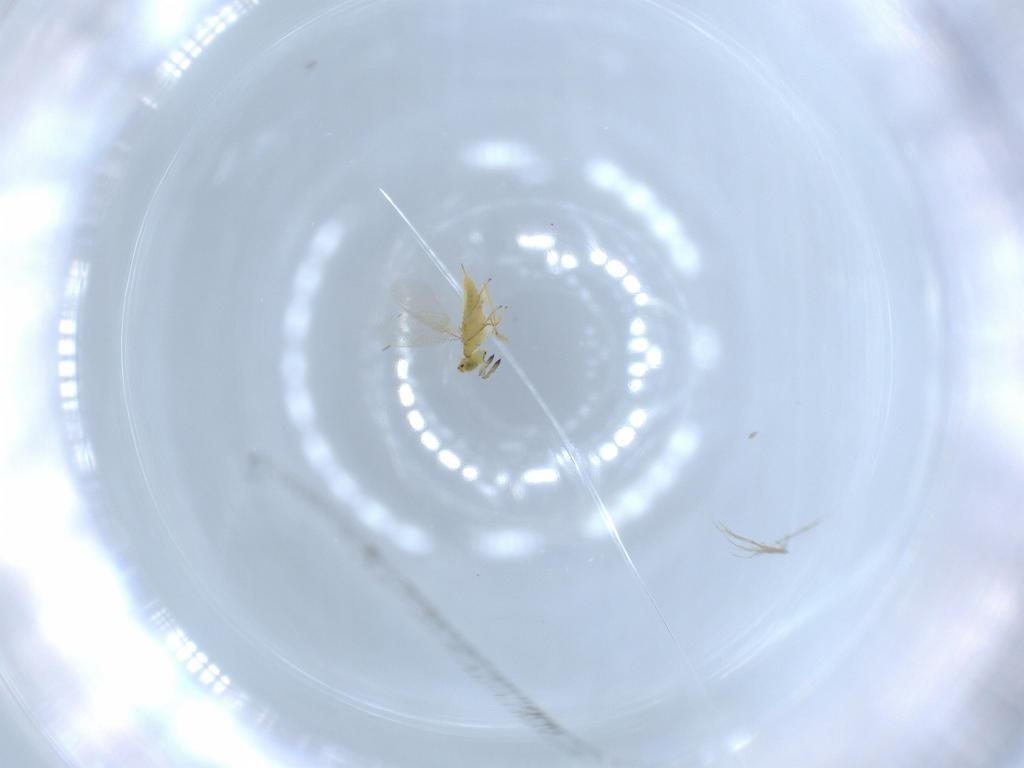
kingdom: Animalia
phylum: Arthropoda
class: Insecta
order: Hymenoptera
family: Aphelinidae
